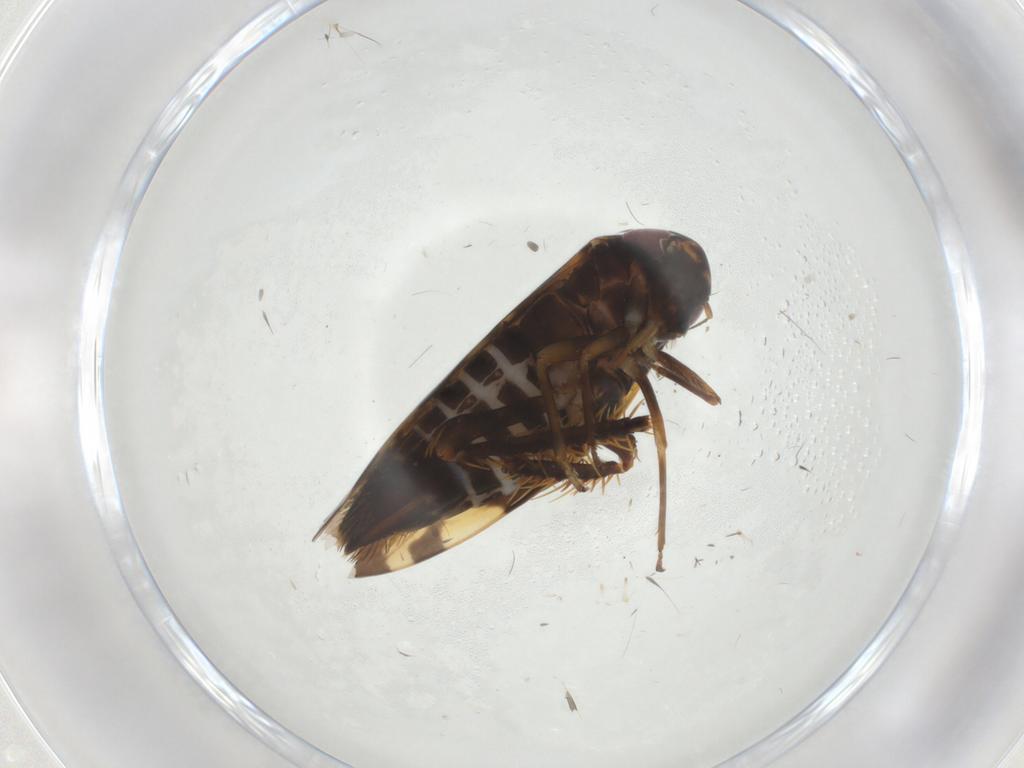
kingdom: Animalia
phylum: Arthropoda
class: Insecta
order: Hemiptera
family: Cicadellidae
